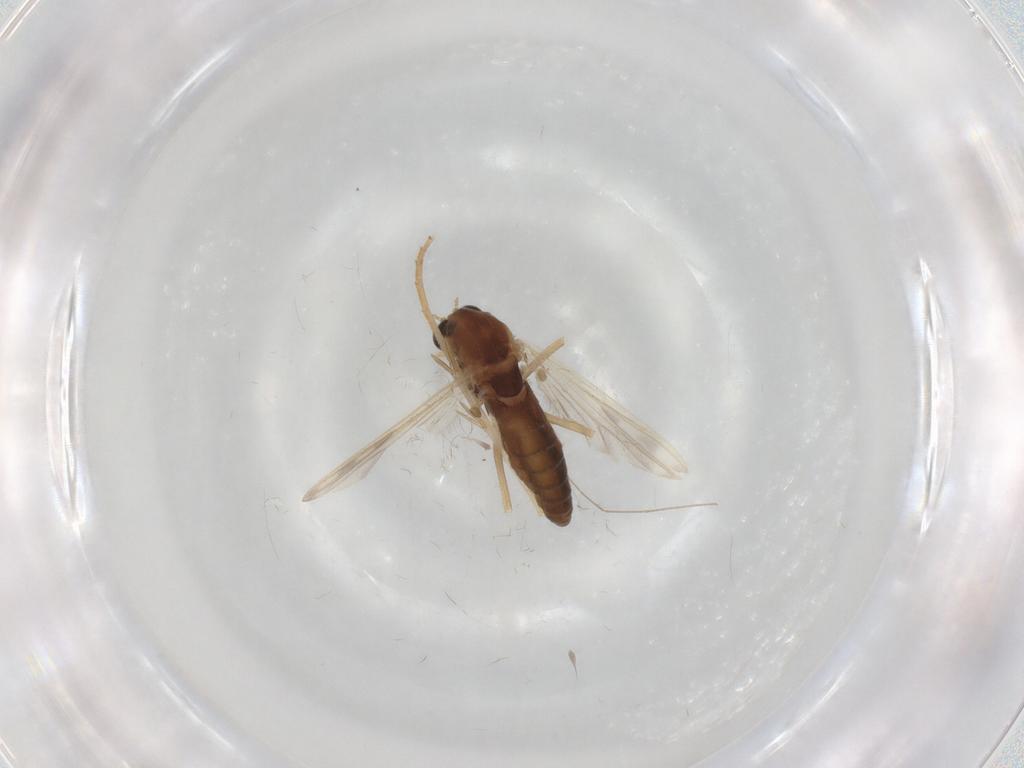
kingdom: Animalia
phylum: Arthropoda
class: Insecta
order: Diptera
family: Chironomidae
